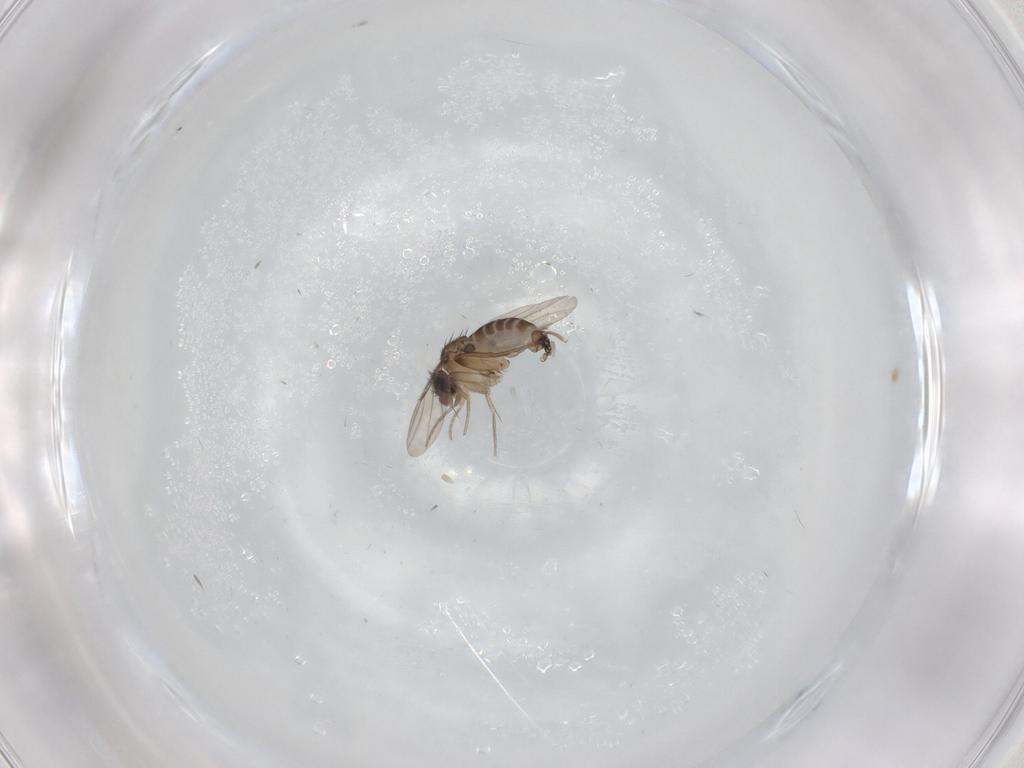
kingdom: Animalia
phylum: Arthropoda
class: Insecta
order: Diptera
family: Phoridae
